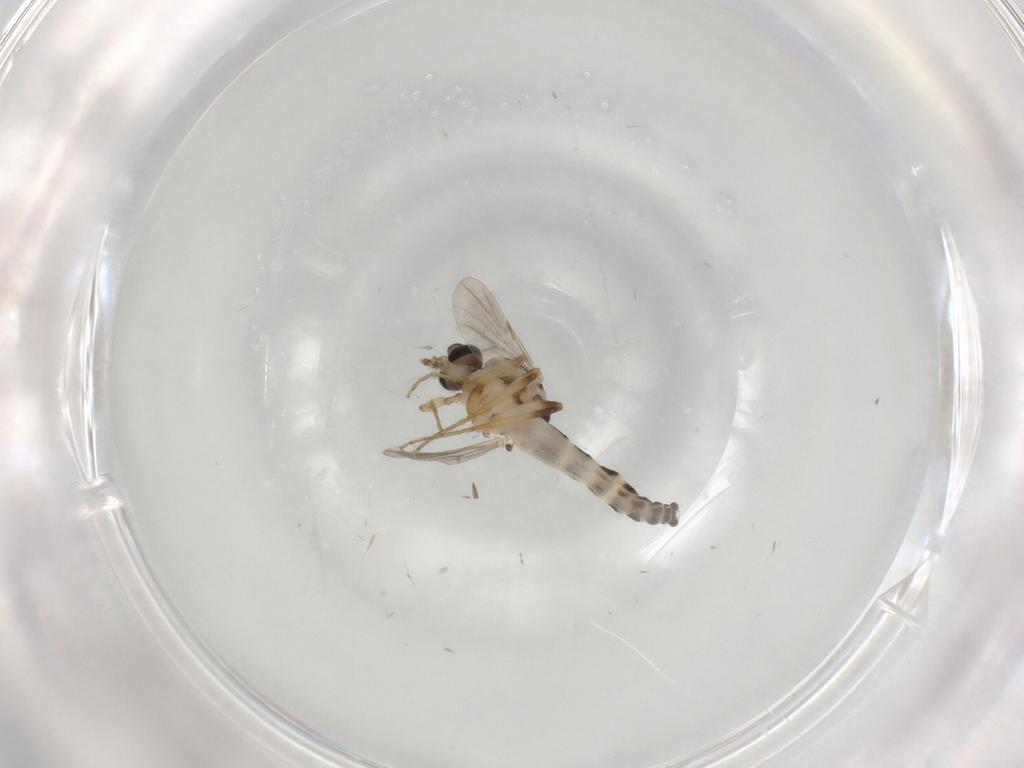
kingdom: Animalia
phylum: Arthropoda
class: Insecta
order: Diptera
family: Ceratopogonidae
